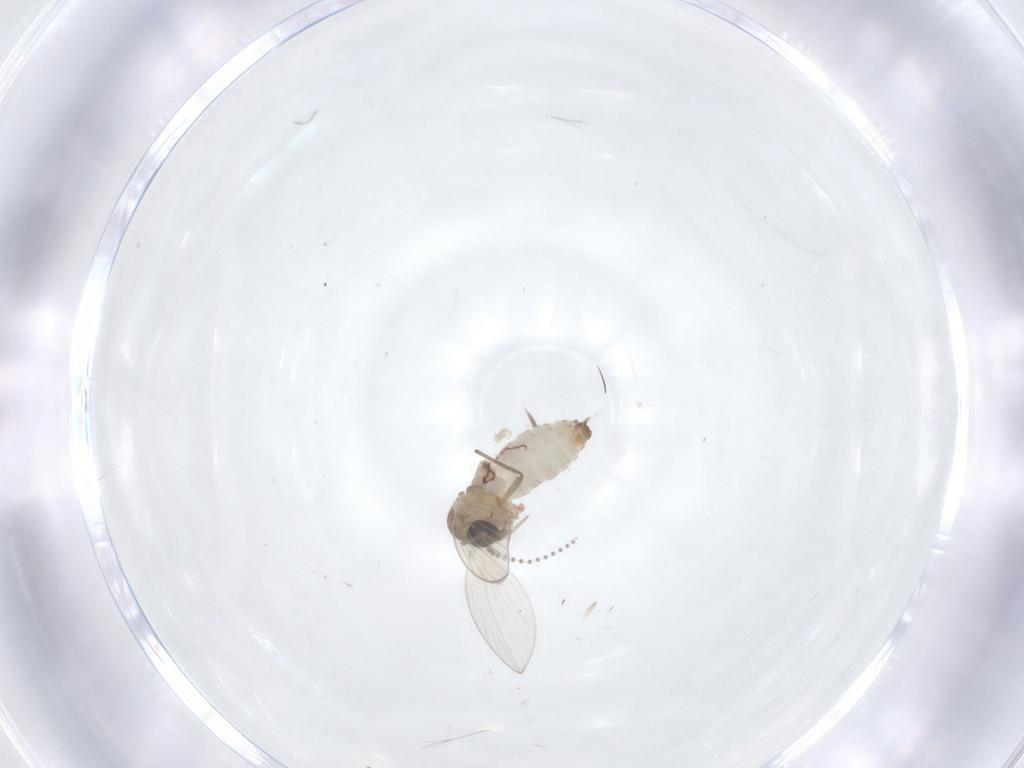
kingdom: Animalia
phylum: Arthropoda
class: Insecta
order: Diptera
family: Psychodidae
